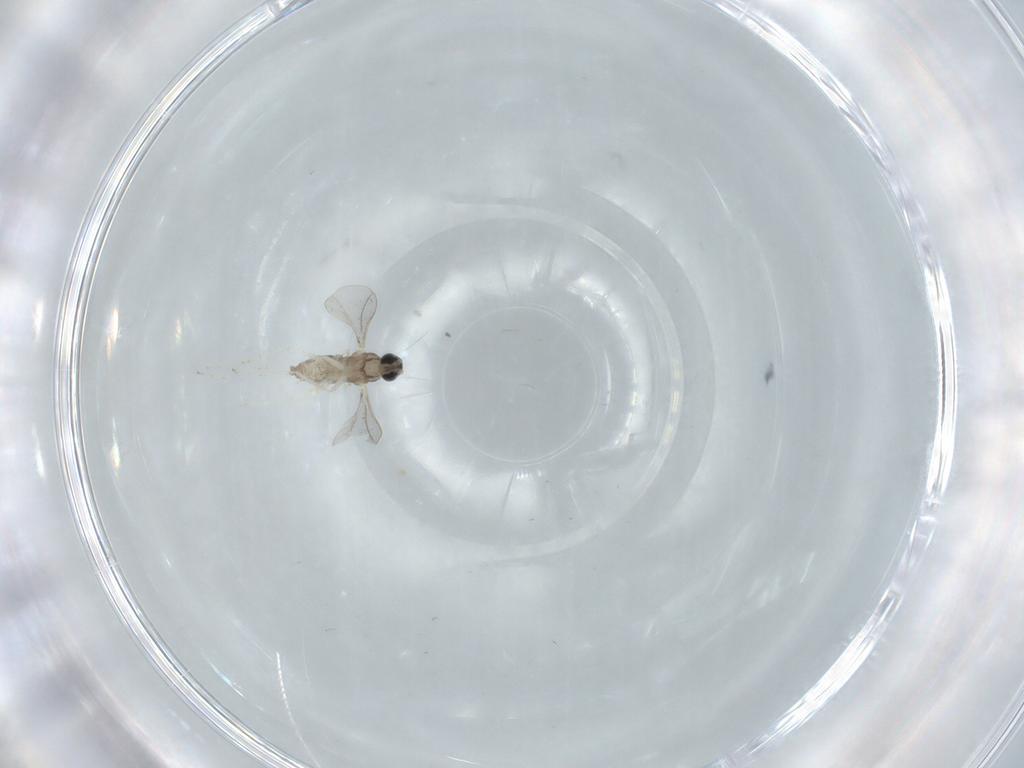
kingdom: Animalia
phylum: Arthropoda
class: Insecta
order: Diptera
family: Cecidomyiidae
